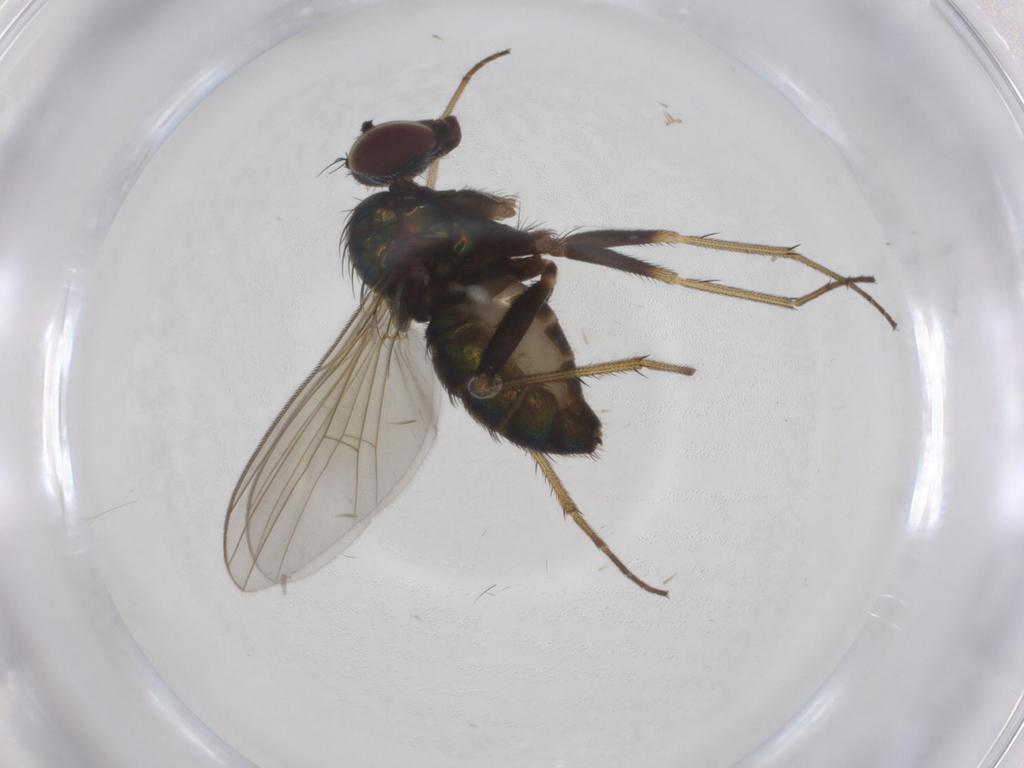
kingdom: Animalia
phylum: Arthropoda
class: Insecta
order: Diptera
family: Dolichopodidae
